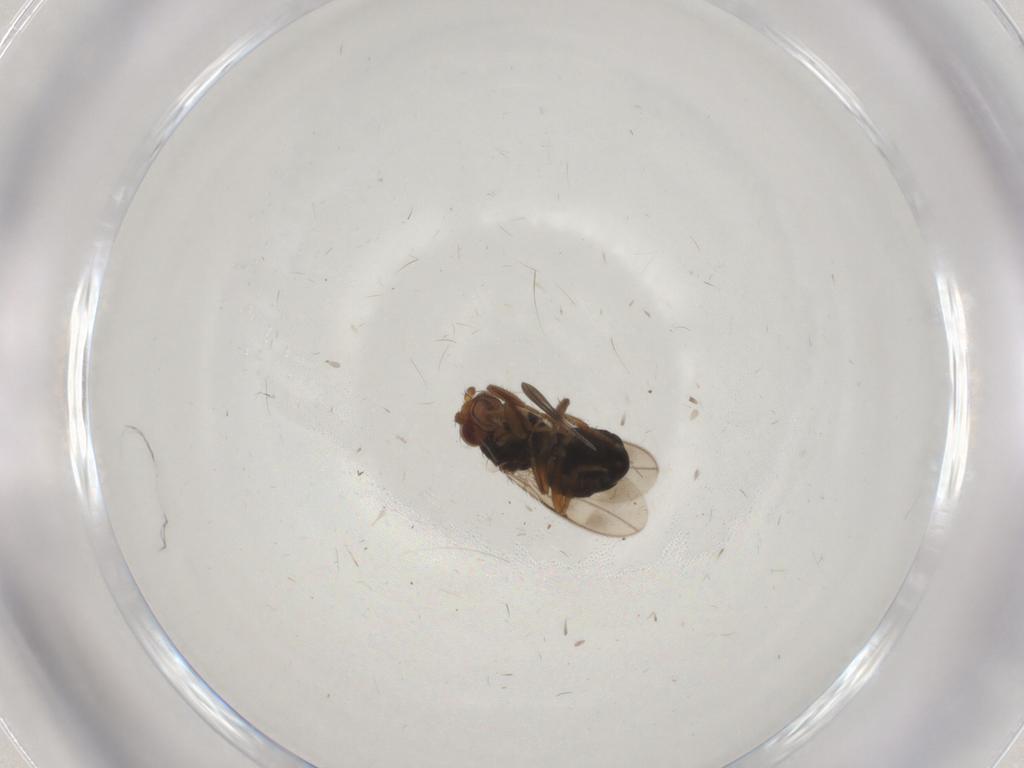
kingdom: Animalia
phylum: Arthropoda
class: Insecta
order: Diptera
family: Cecidomyiidae
